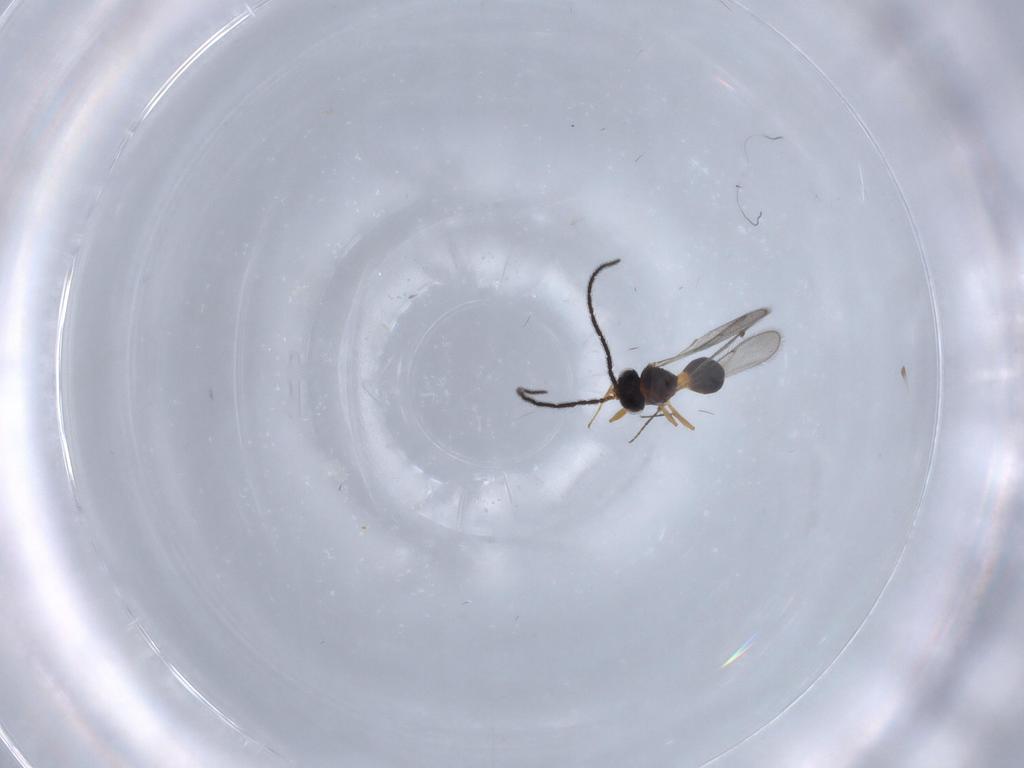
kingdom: Animalia
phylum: Arthropoda
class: Insecta
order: Hymenoptera
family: Scelionidae
